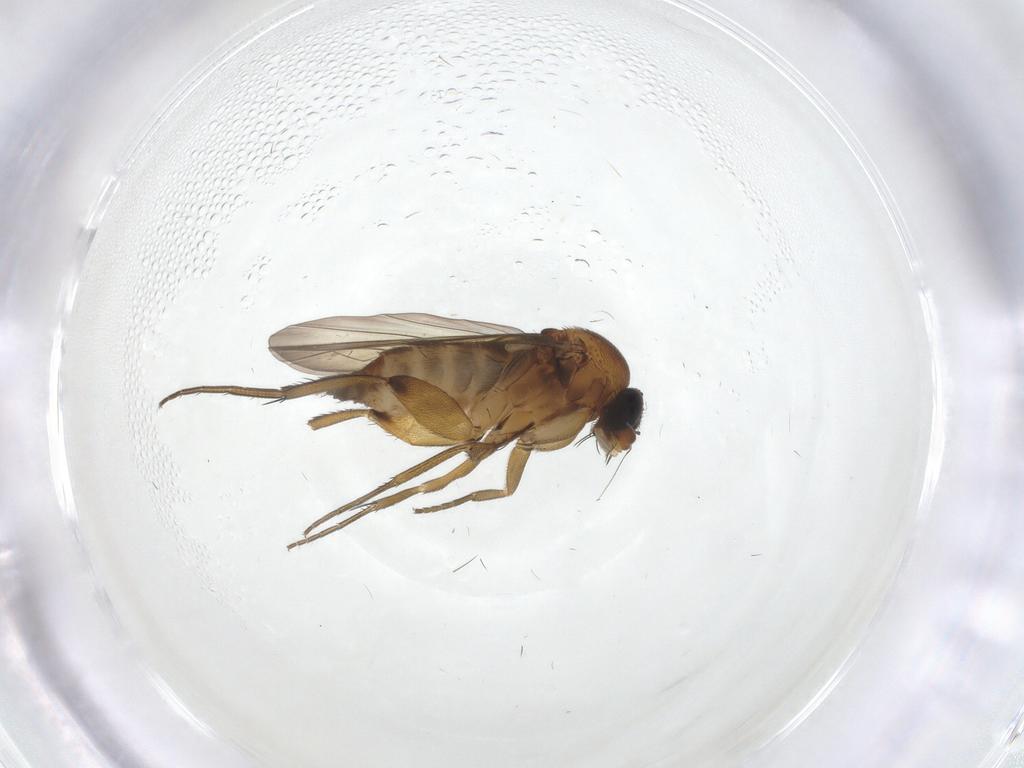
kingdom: Animalia
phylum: Arthropoda
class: Insecta
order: Diptera
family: Phoridae
